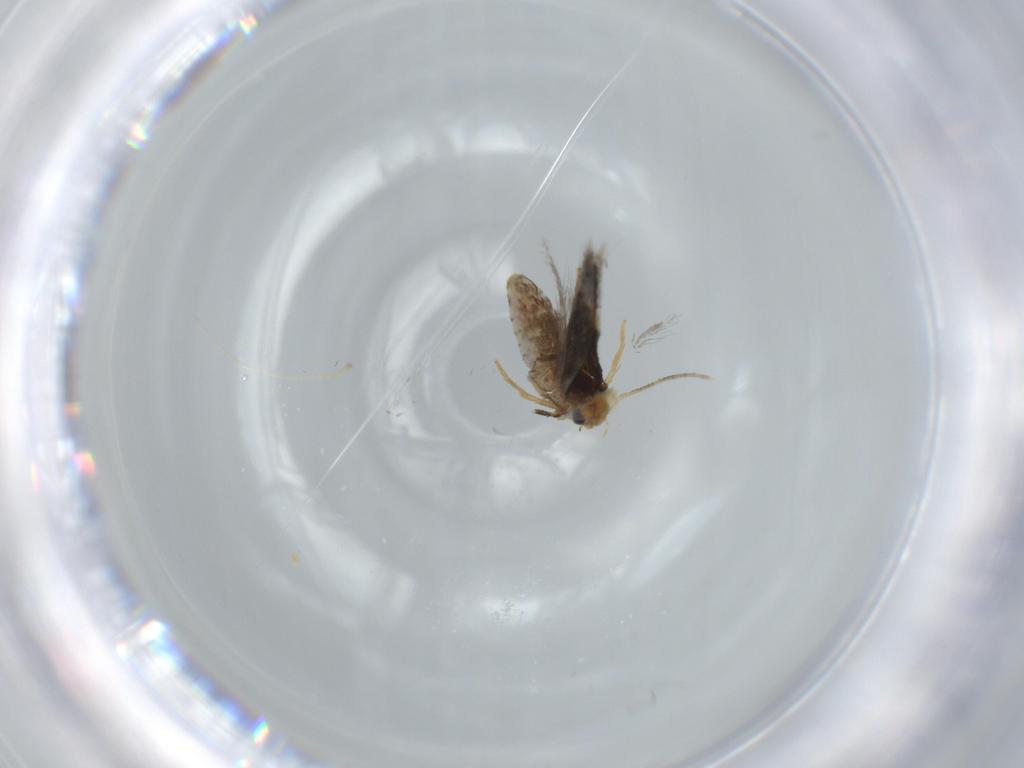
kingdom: Animalia
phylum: Arthropoda
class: Insecta
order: Lepidoptera
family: Nepticulidae
